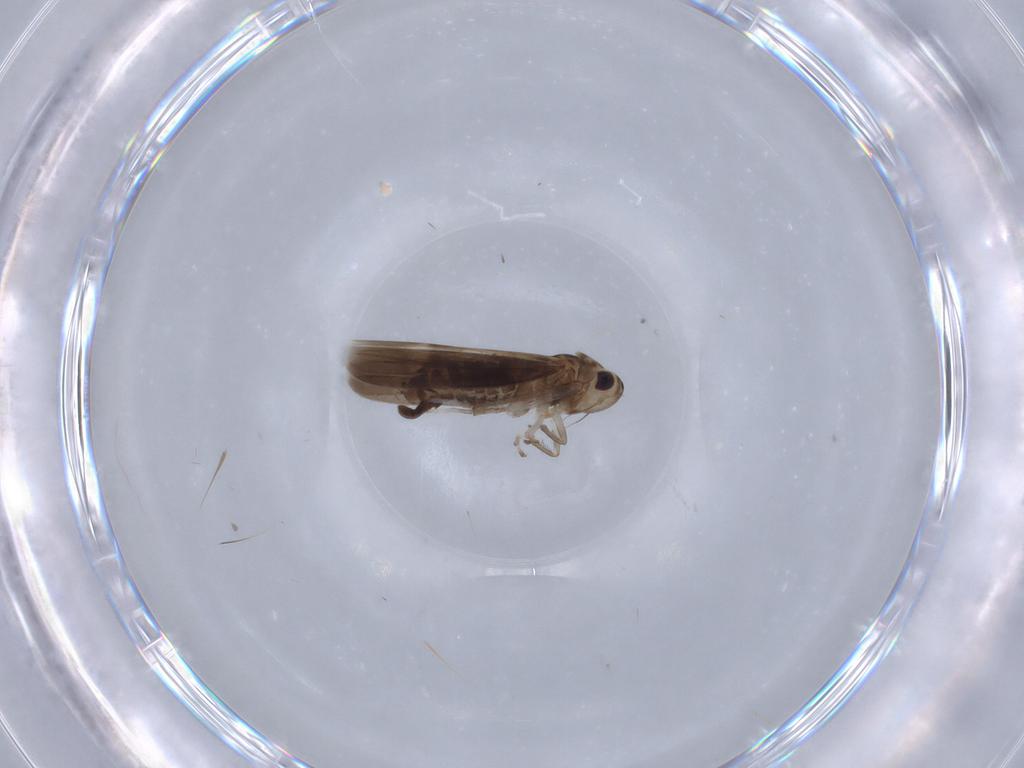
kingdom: Animalia
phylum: Arthropoda
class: Insecta
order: Hemiptera
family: Cicadellidae
